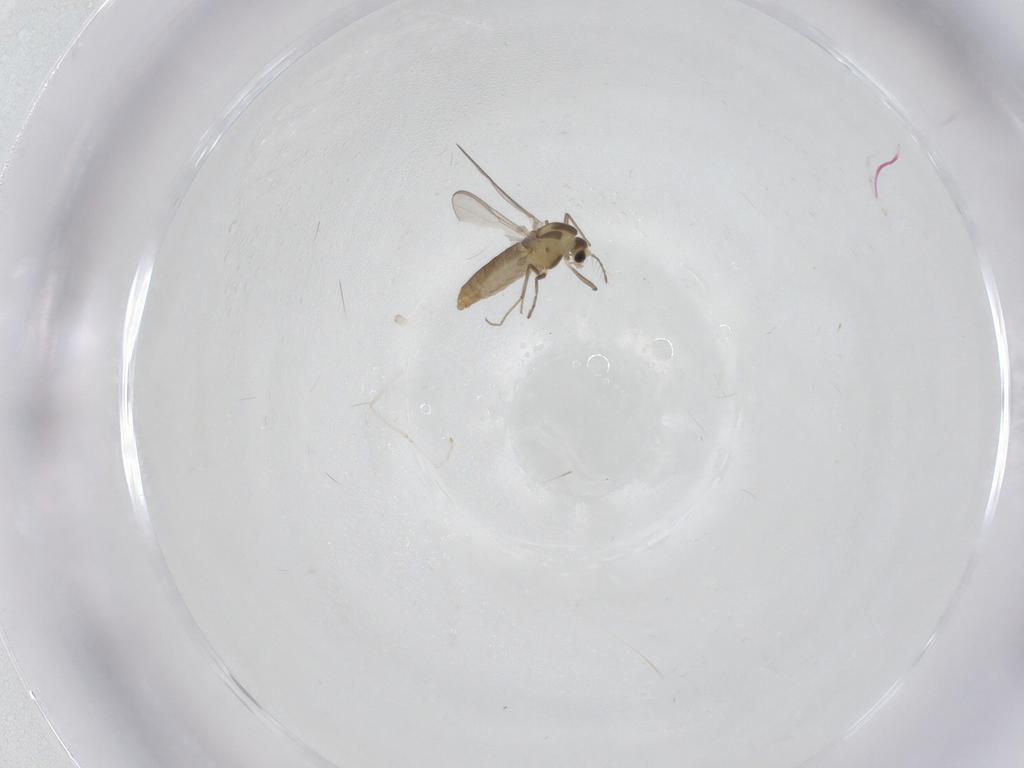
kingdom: Animalia
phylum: Arthropoda
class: Insecta
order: Diptera
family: Cecidomyiidae
